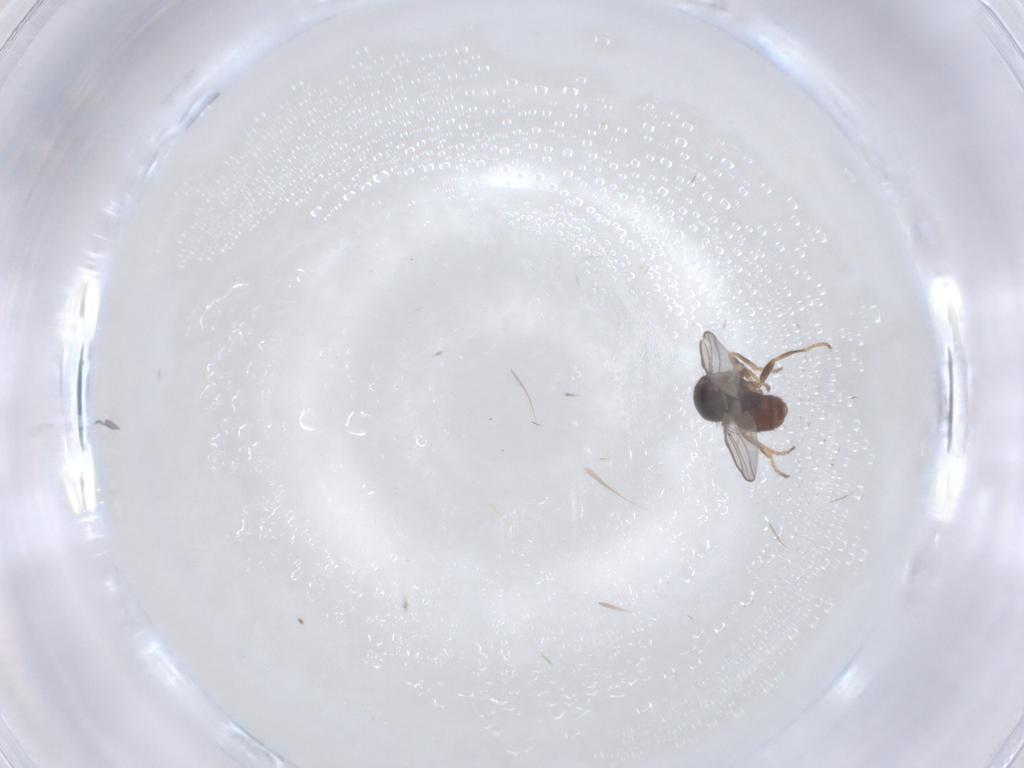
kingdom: Animalia
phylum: Arthropoda
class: Insecta
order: Diptera
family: Chloropidae
